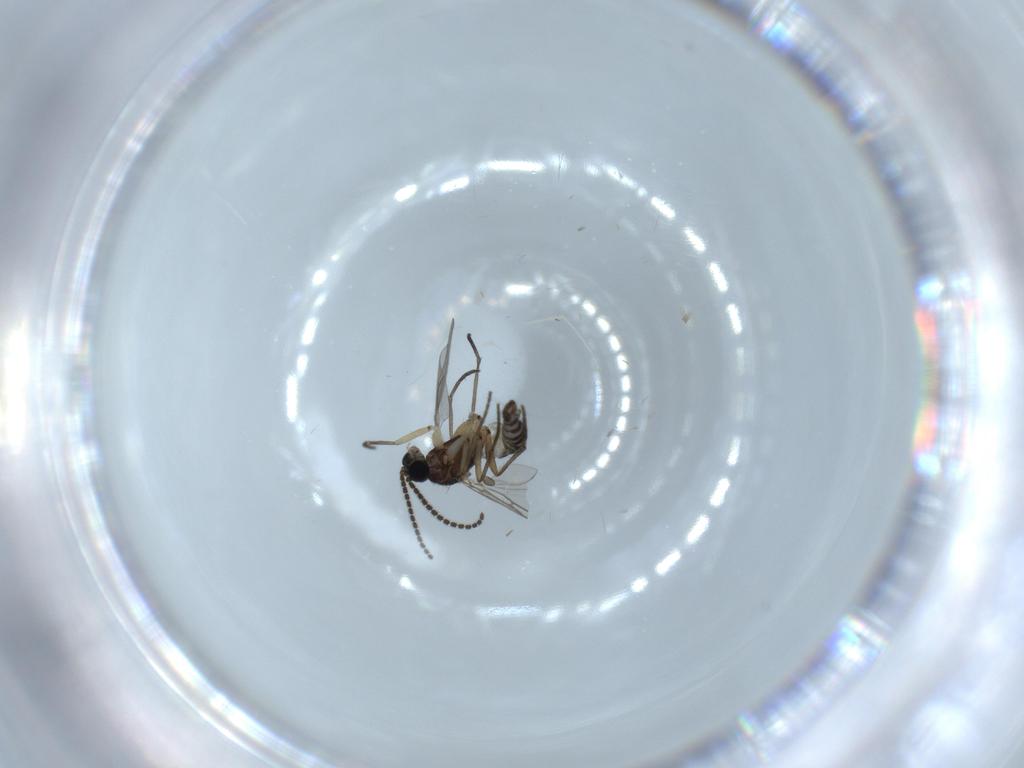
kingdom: Animalia
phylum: Arthropoda
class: Insecta
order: Diptera
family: Sciaridae
